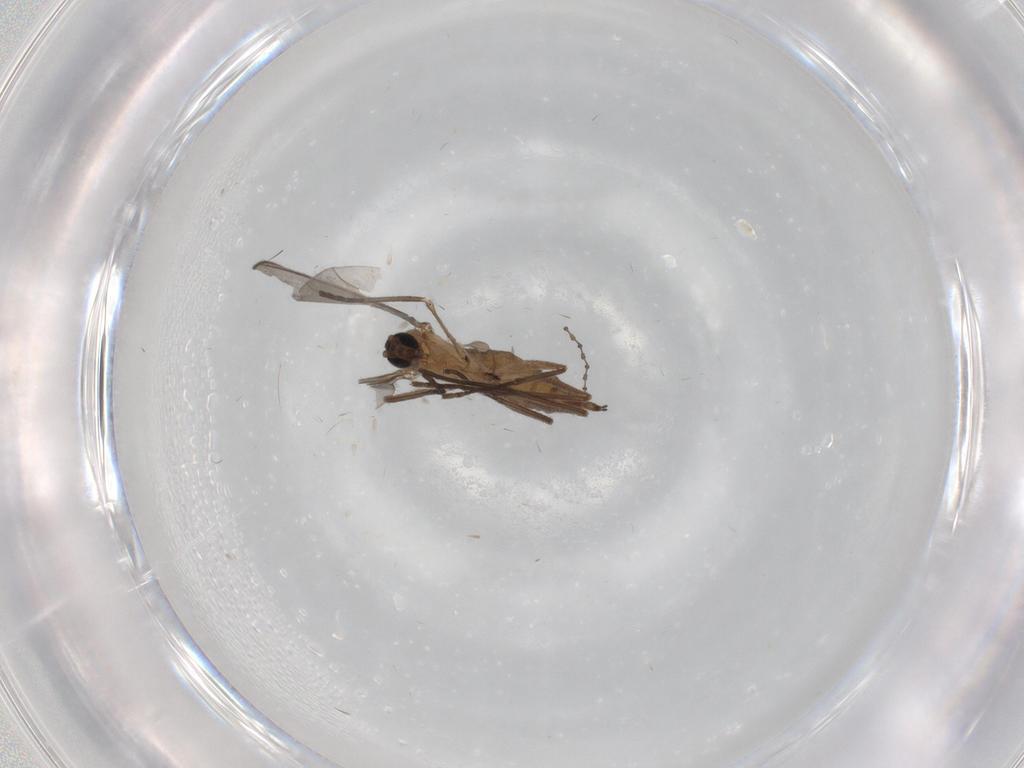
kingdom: Animalia
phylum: Arthropoda
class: Insecta
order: Diptera
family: Sciaridae
